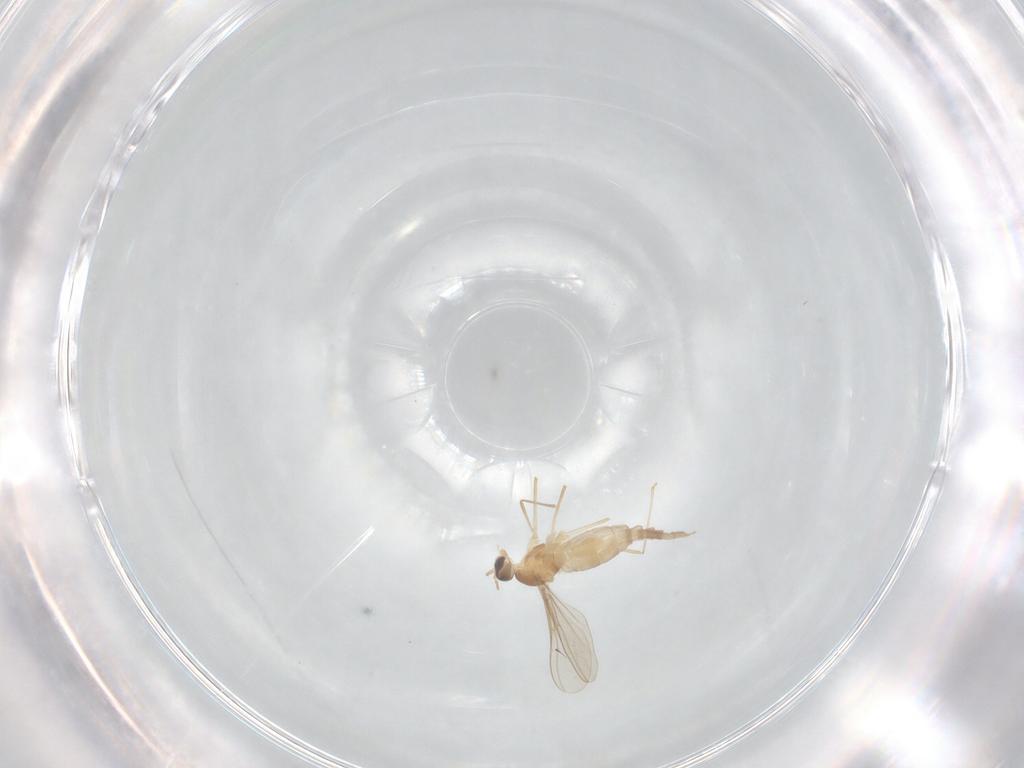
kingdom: Animalia
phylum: Arthropoda
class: Insecta
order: Diptera
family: Cecidomyiidae
